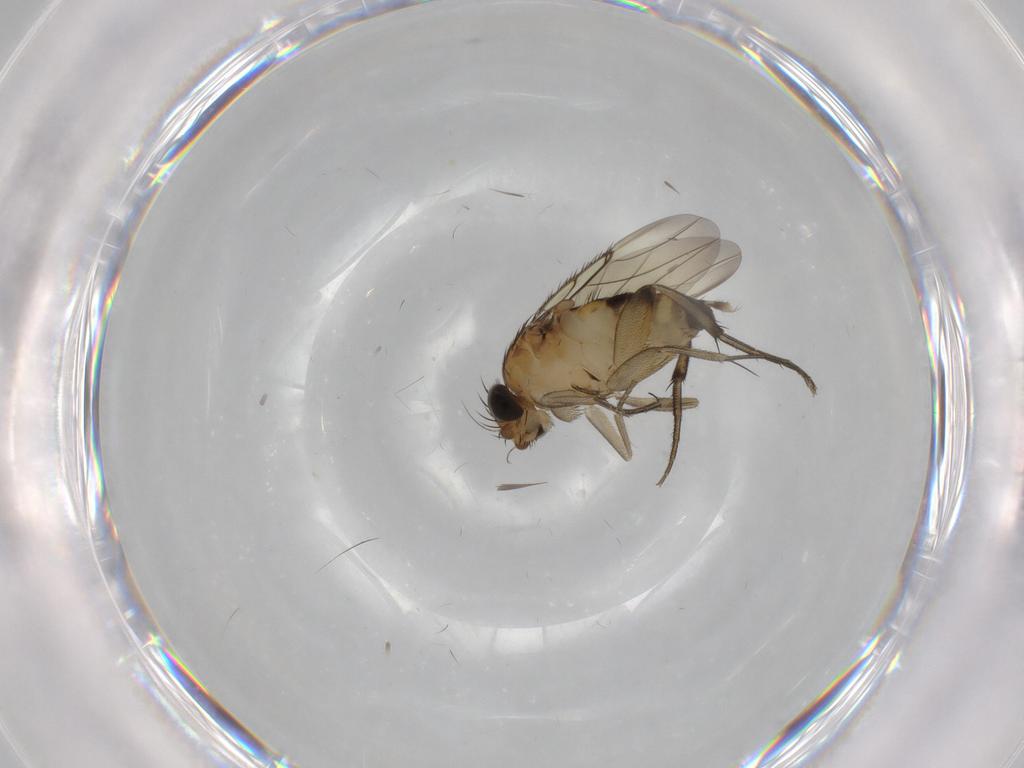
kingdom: Animalia
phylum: Arthropoda
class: Insecta
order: Diptera
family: Phoridae
